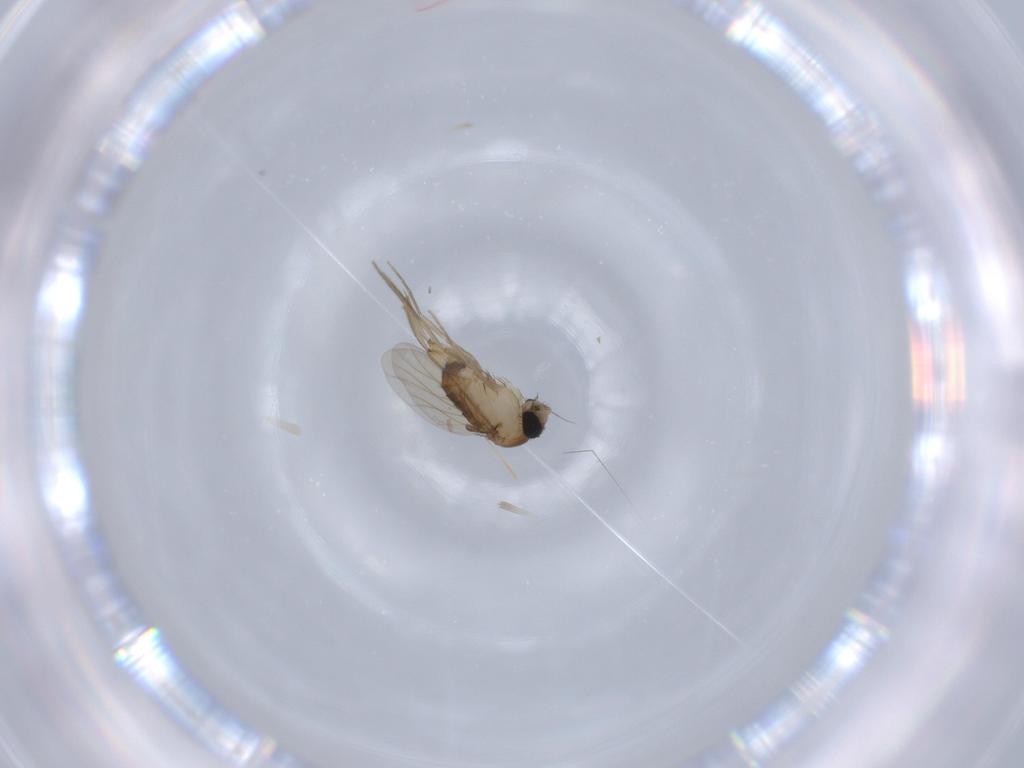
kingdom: Animalia
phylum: Arthropoda
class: Insecta
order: Diptera
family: Phoridae
